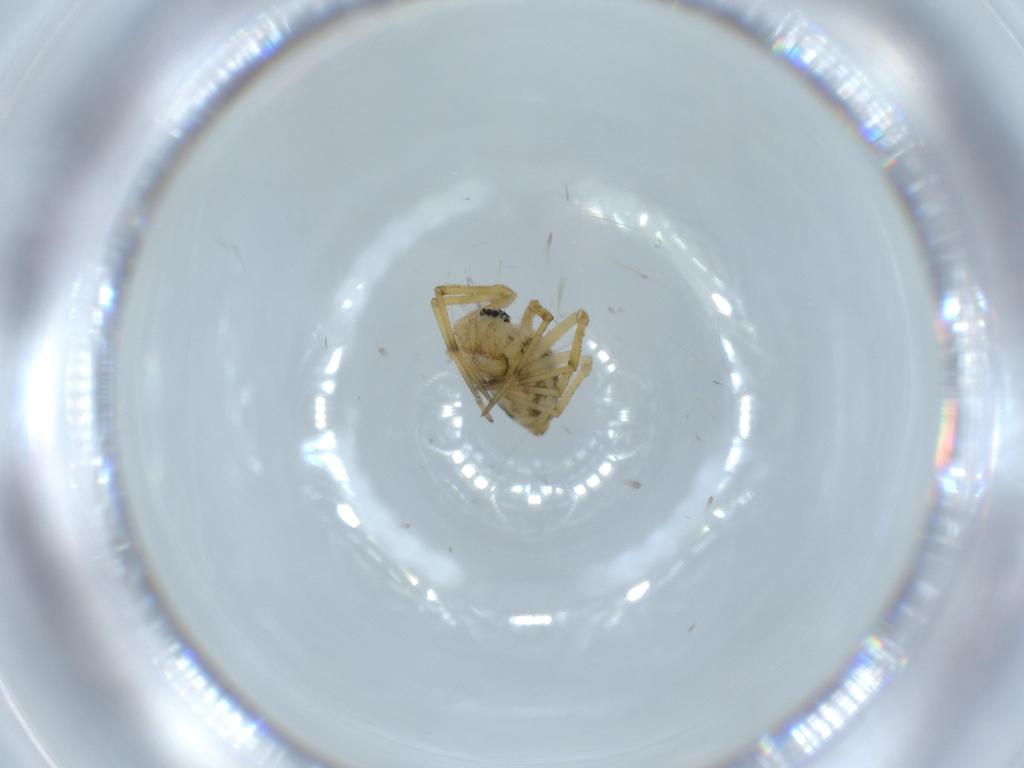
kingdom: Animalia
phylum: Arthropoda
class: Arachnida
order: Araneae
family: Linyphiidae
